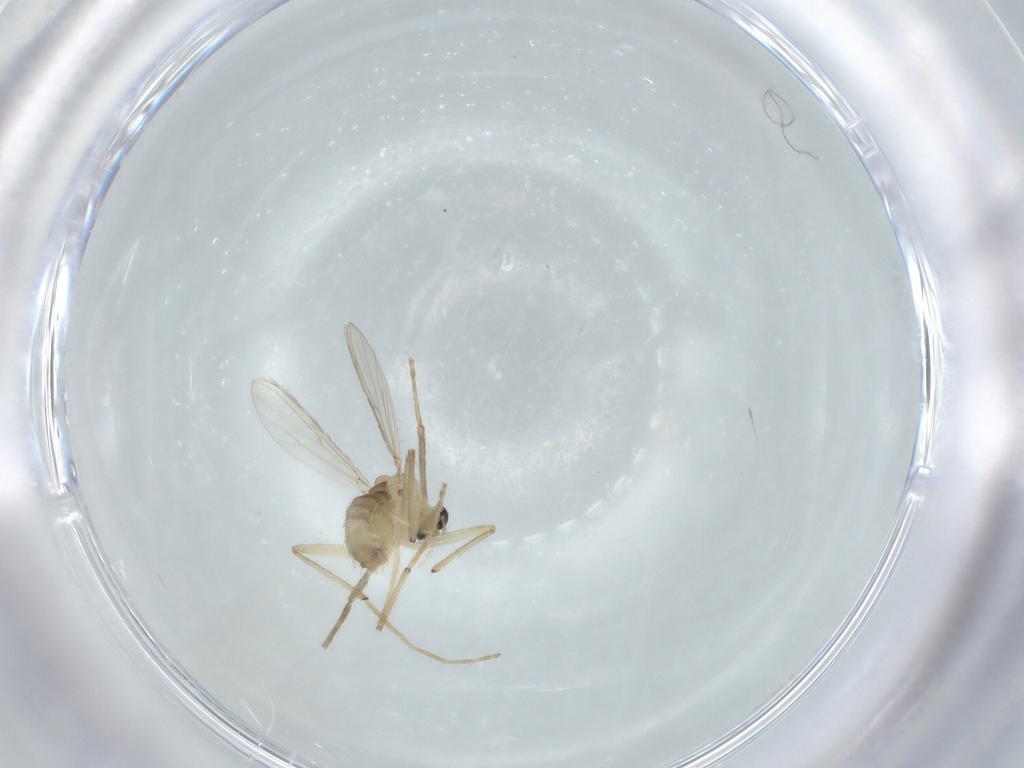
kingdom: Animalia
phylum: Arthropoda
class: Insecta
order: Diptera
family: Chironomidae
